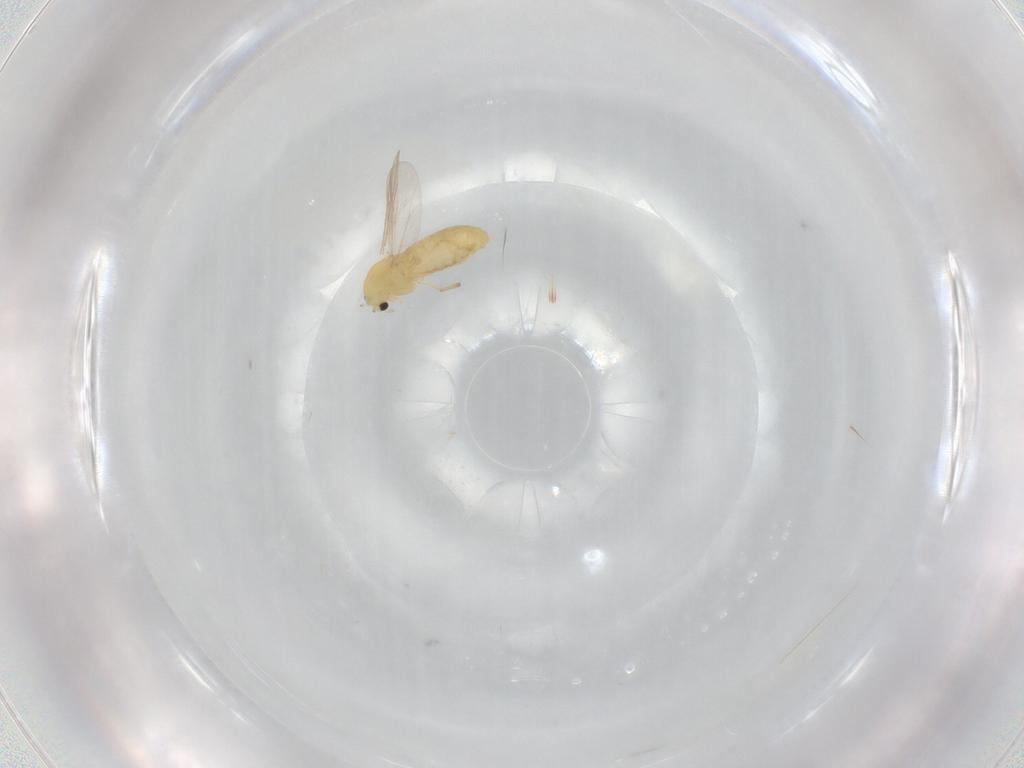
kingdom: Animalia
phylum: Arthropoda
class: Insecta
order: Diptera
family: Chironomidae
